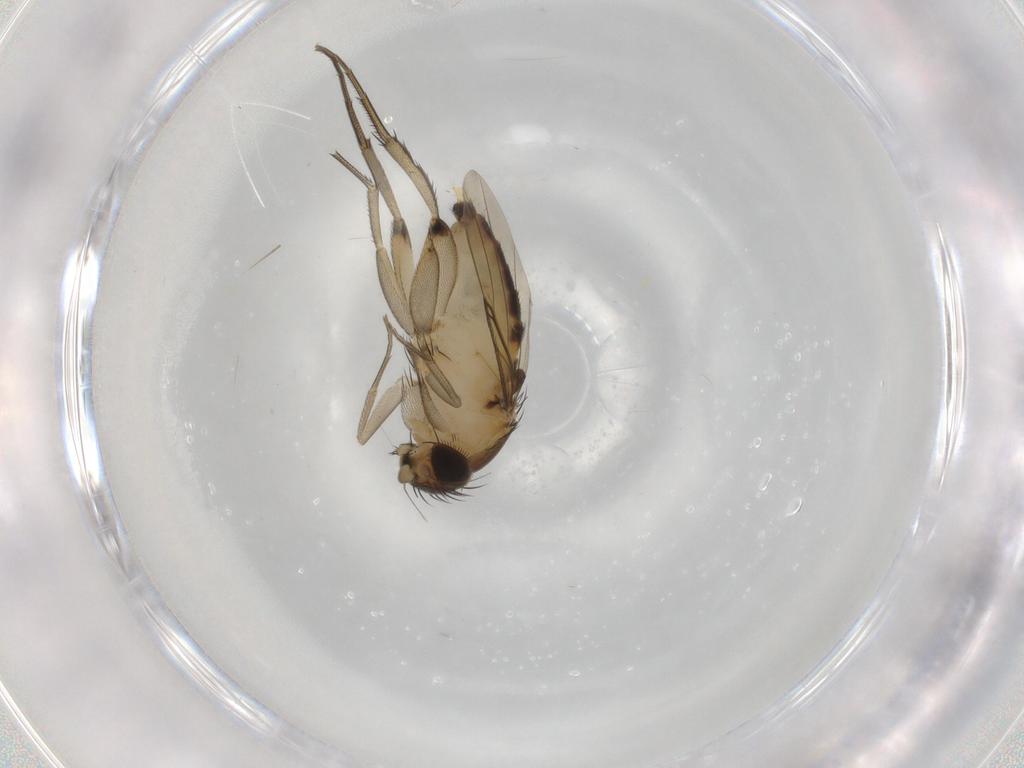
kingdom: Animalia
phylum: Arthropoda
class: Insecta
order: Diptera
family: Phoridae
